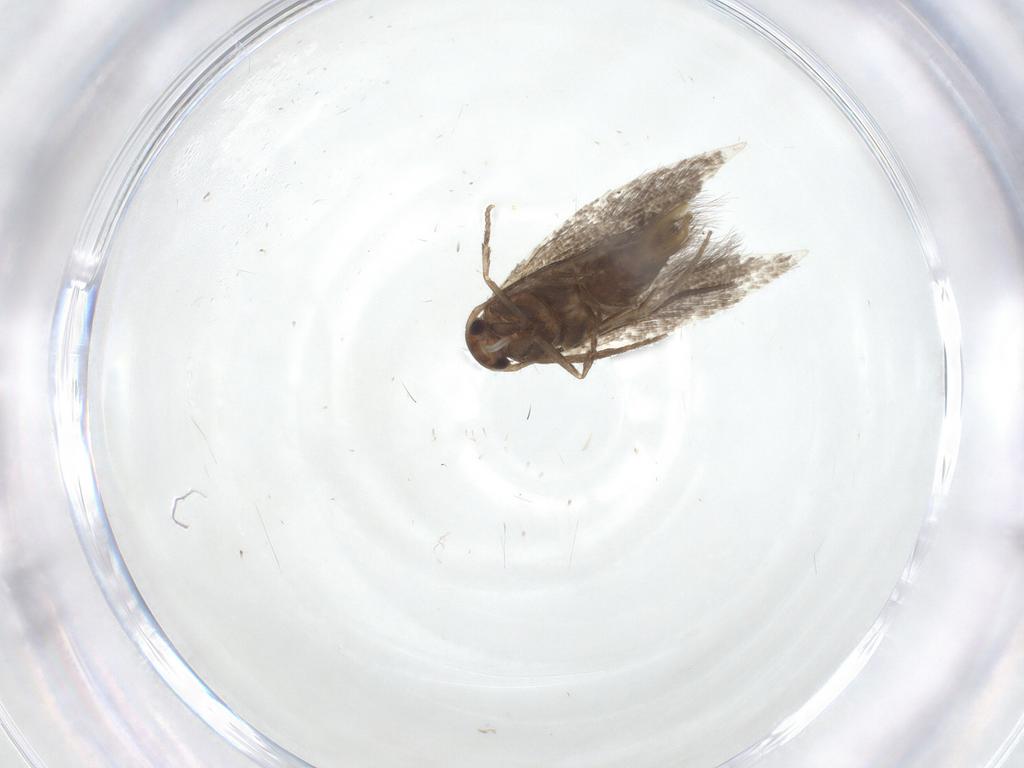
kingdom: Animalia
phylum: Arthropoda
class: Insecta
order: Lepidoptera
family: Elachistidae
